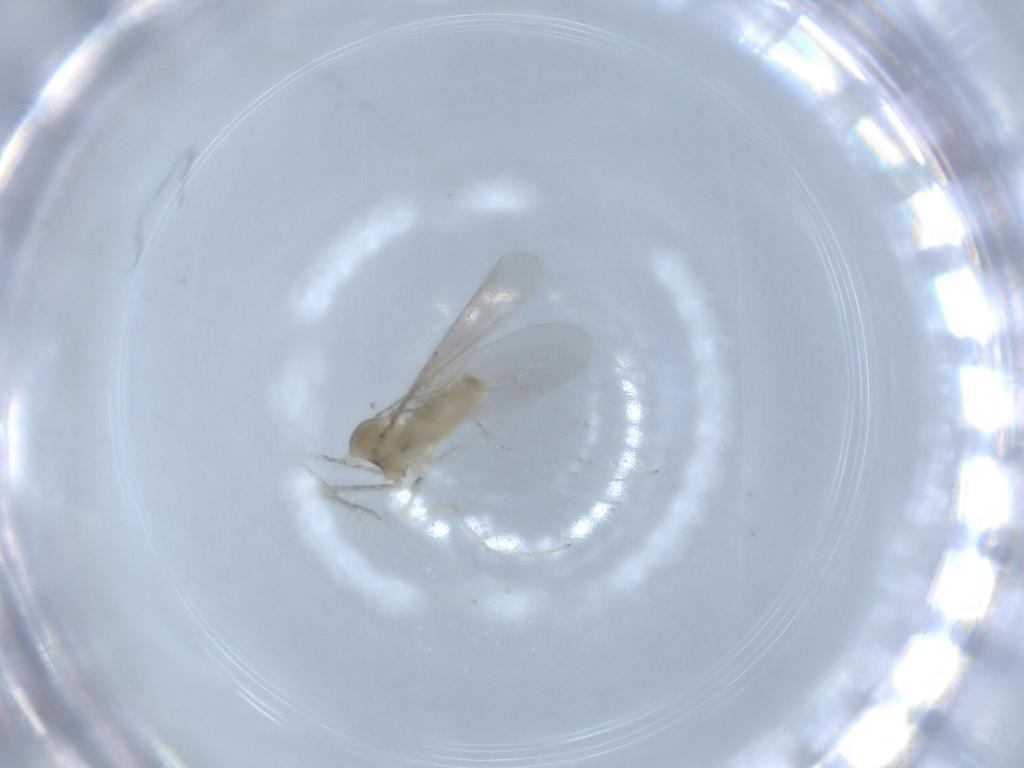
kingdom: Animalia
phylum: Arthropoda
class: Insecta
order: Diptera
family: Cecidomyiidae
